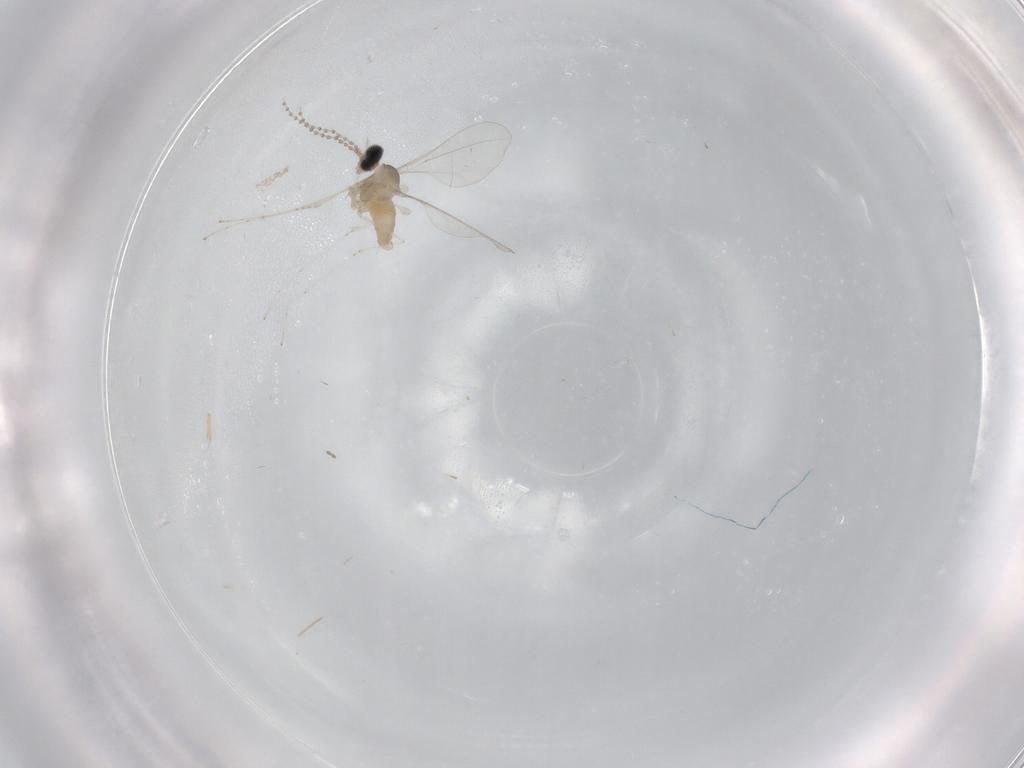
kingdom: Animalia
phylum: Arthropoda
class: Insecta
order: Diptera
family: Cecidomyiidae
